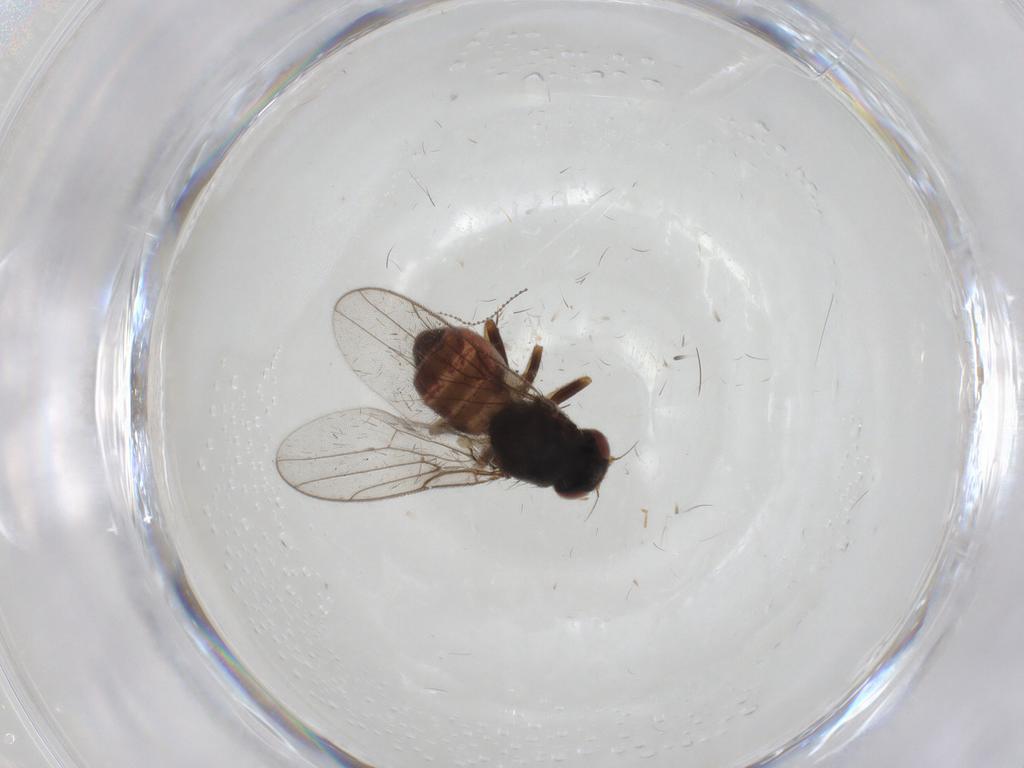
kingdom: Animalia
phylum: Arthropoda
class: Insecta
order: Diptera
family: Chloropidae
